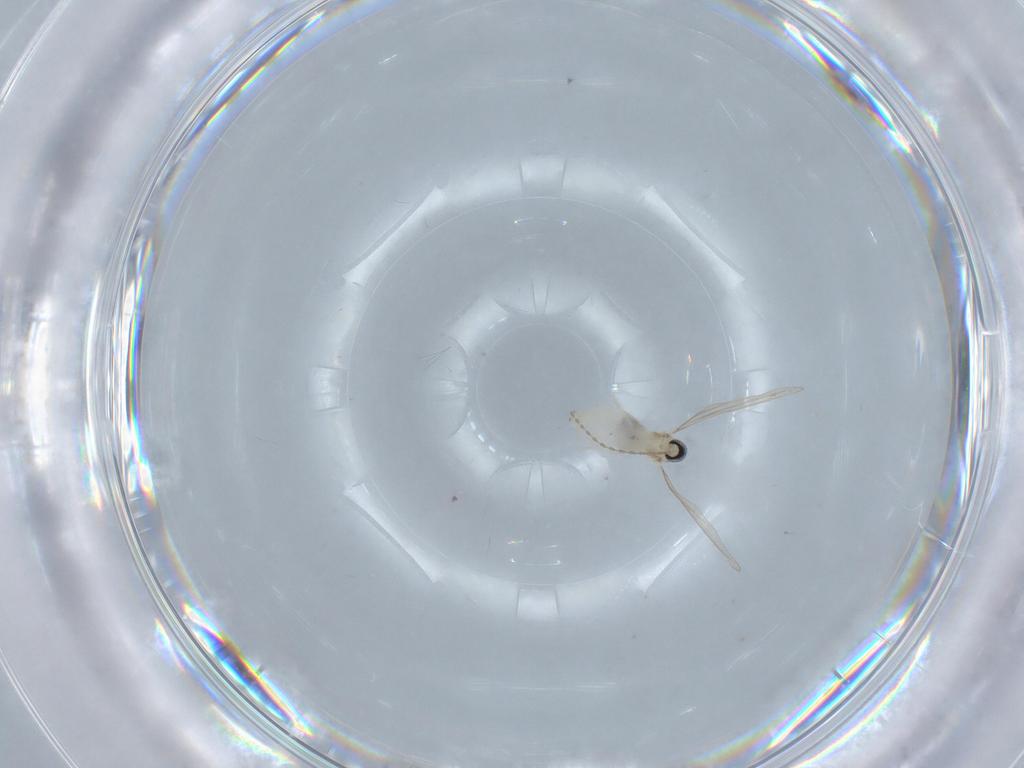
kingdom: Animalia
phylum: Arthropoda
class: Insecta
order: Diptera
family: Cecidomyiidae
